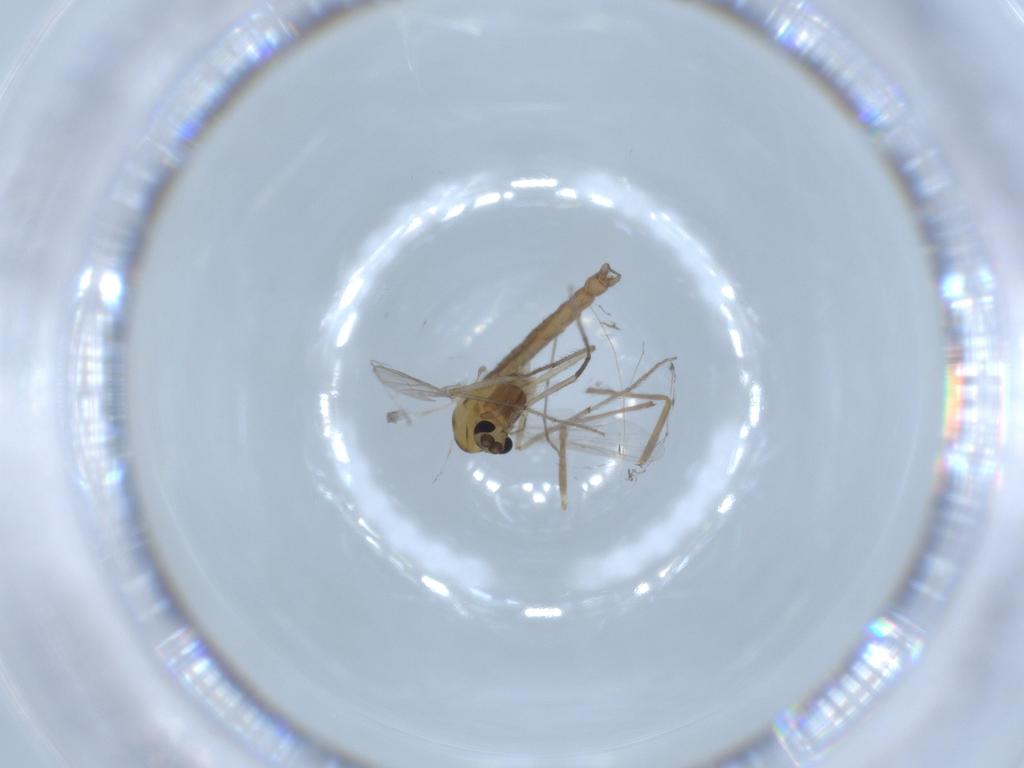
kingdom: Animalia
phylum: Arthropoda
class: Insecta
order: Diptera
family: Chironomidae
